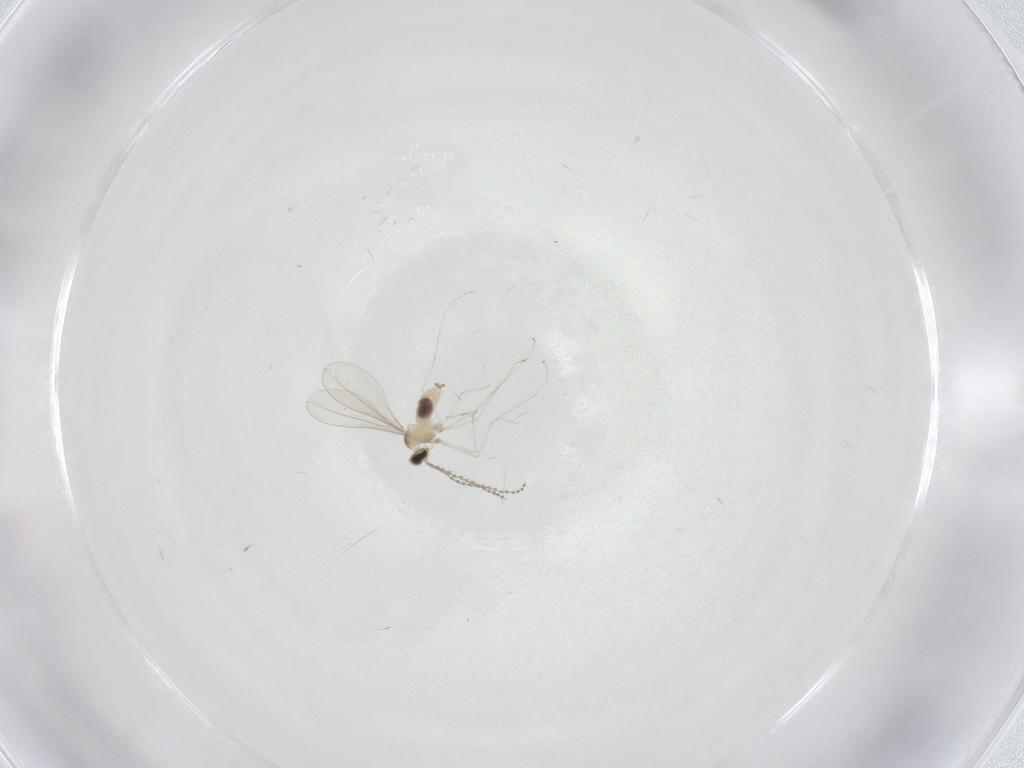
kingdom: Animalia
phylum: Arthropoda
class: Insecta
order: Diptera
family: Cecidomyiidae
